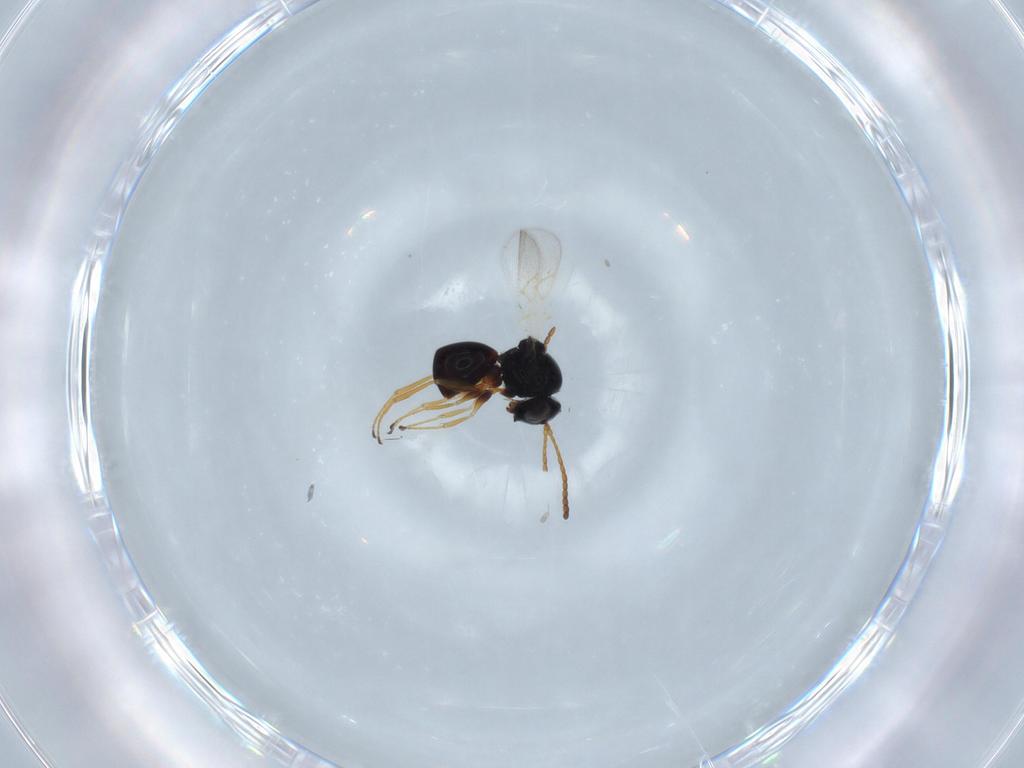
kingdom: Animalia
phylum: Arthropoda
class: Insecta
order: Hymenoptera
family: Figitidae
